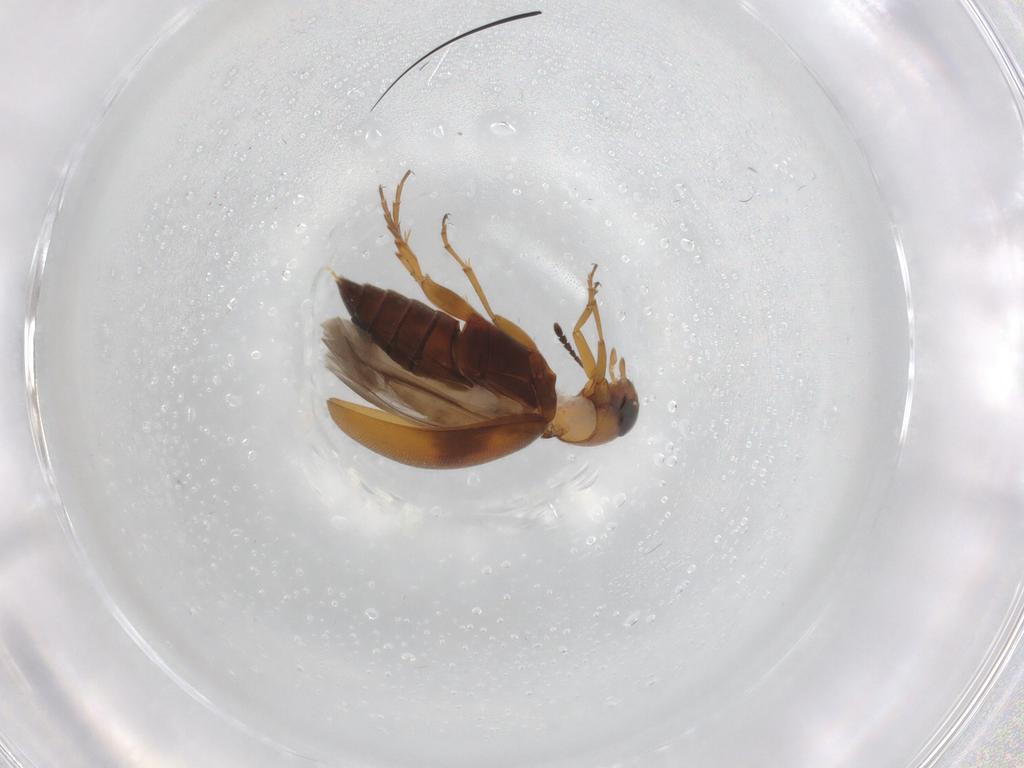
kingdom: Animalia
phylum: Arthropoda
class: Insecta
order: Coleoptera
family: Scraptiidae
